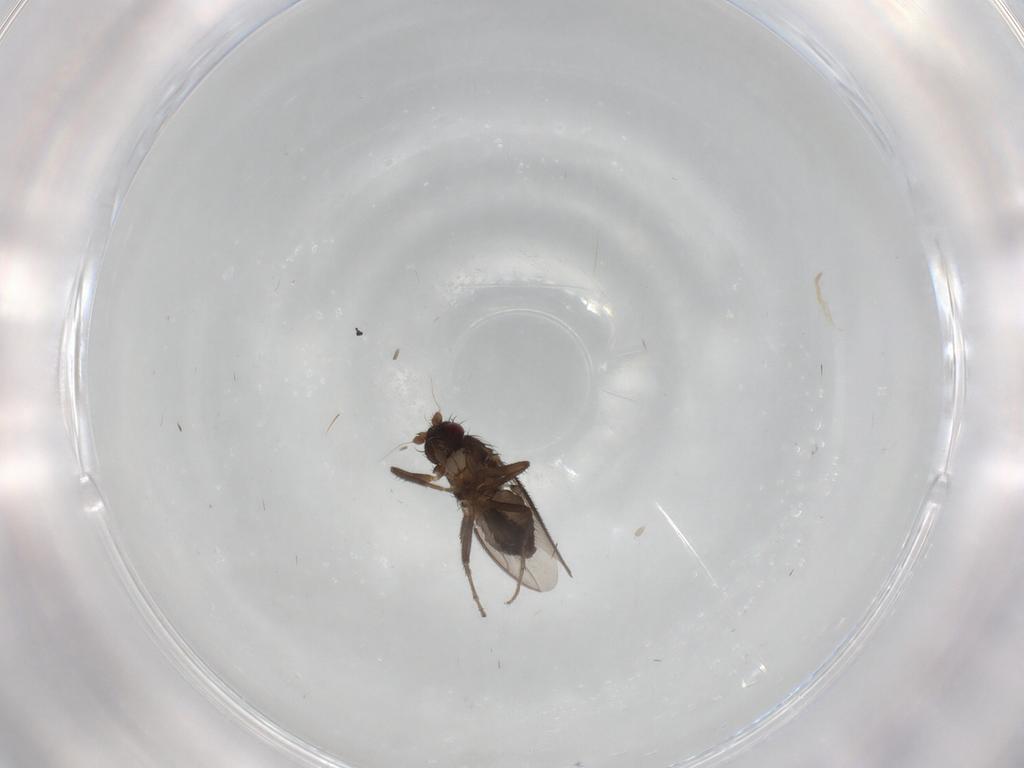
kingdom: Animalia
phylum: Arthropoda
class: Insecta
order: Diptera
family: Sphaeroceridae
